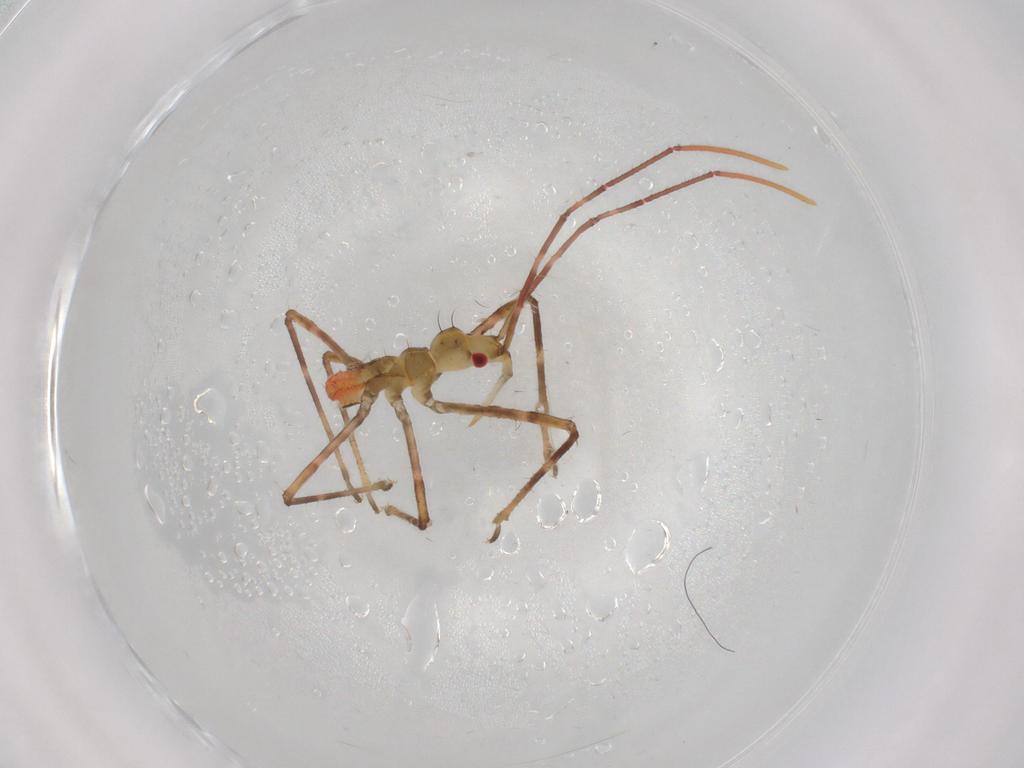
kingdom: Animalia
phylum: Arthropoda
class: Insecta
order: Hemiptera
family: Reduviidae
